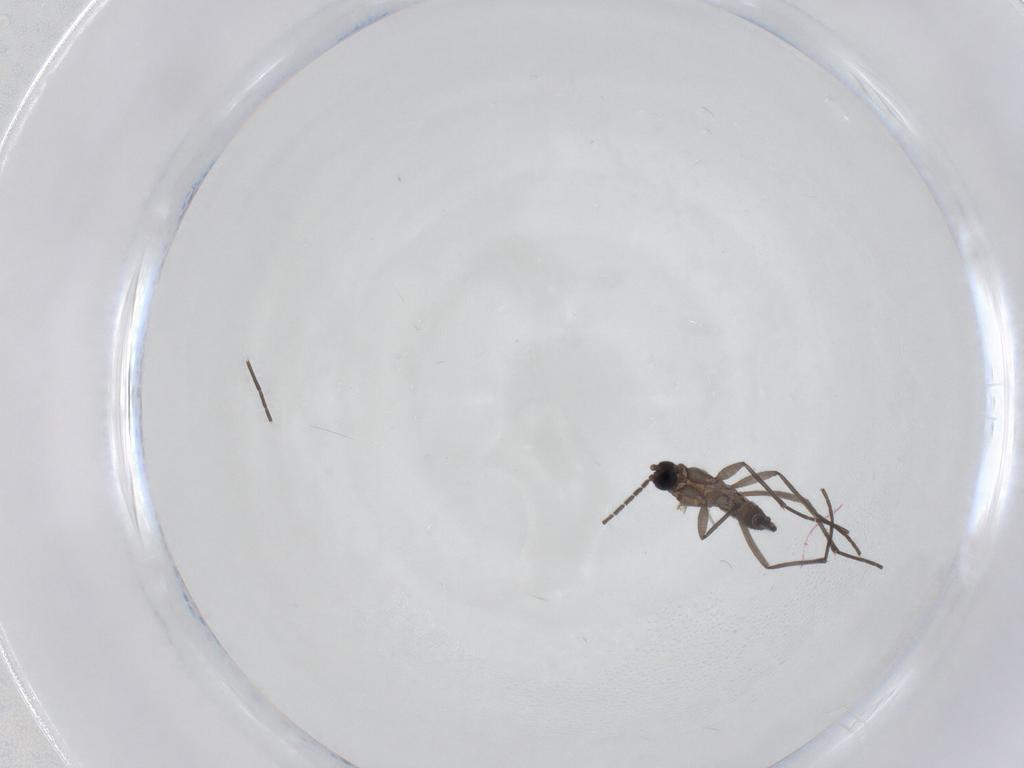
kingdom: Animalia
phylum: Arthropoda
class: Insecta
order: Diptera
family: Sciaridae
